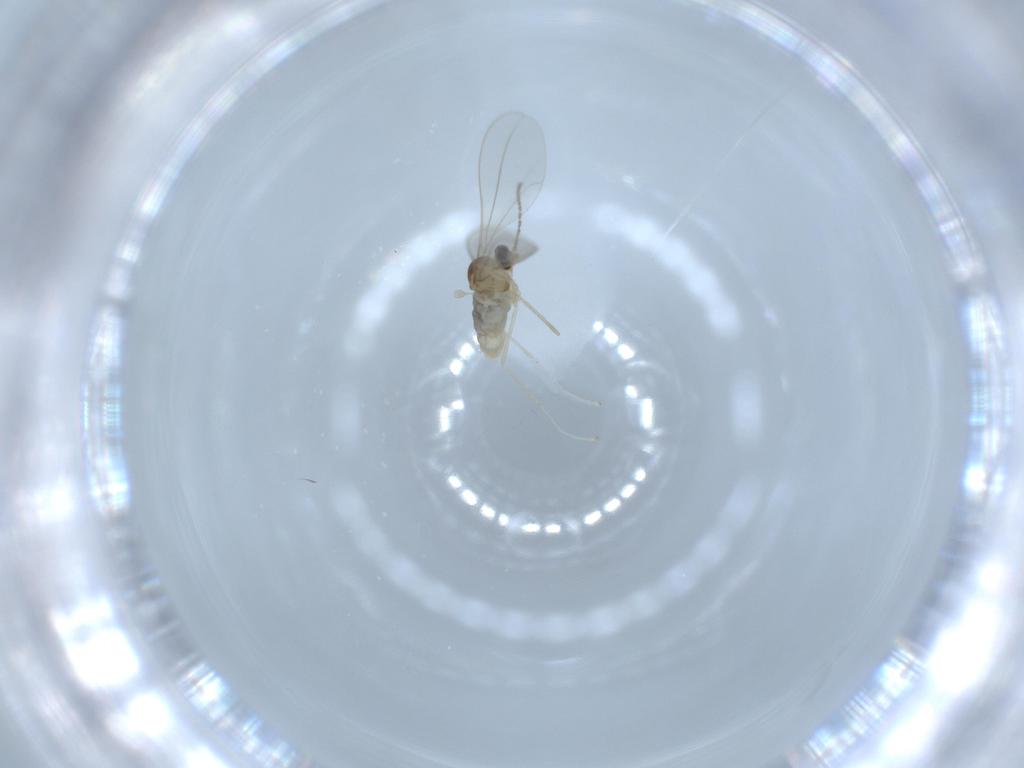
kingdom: Animalia
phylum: Arthropoda
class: Insecta
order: Diptera
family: Cecidomyiidae
